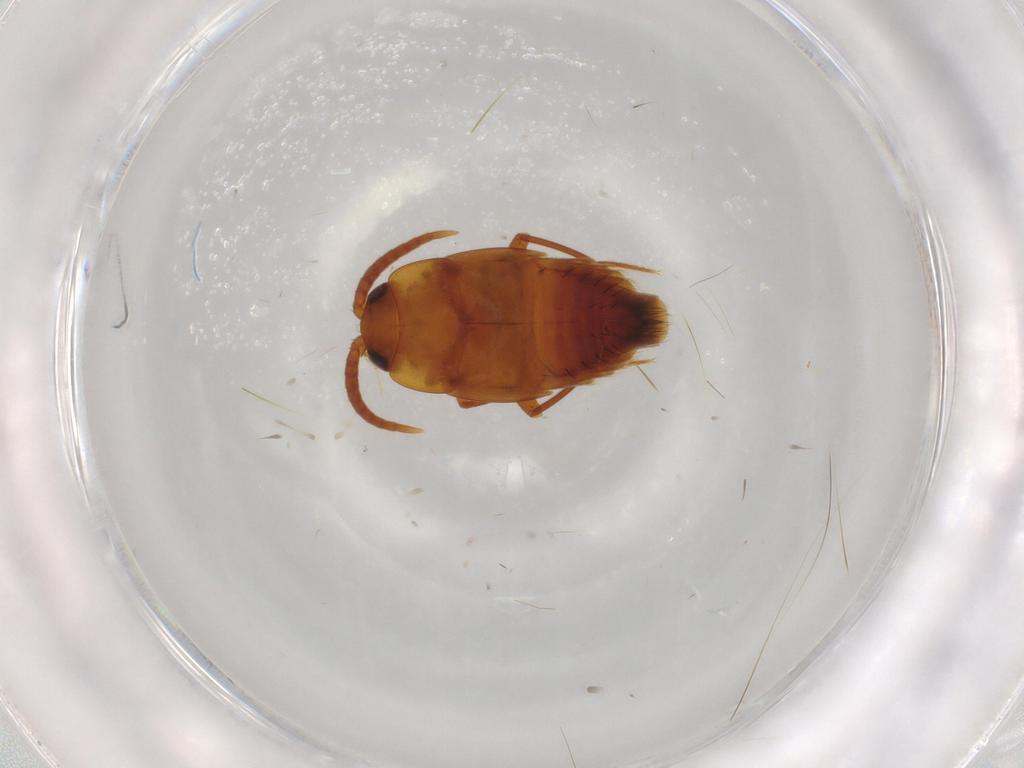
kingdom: Animalia
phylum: Arthropoda
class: Insecta
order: Coleoptera
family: Staphylinidae
